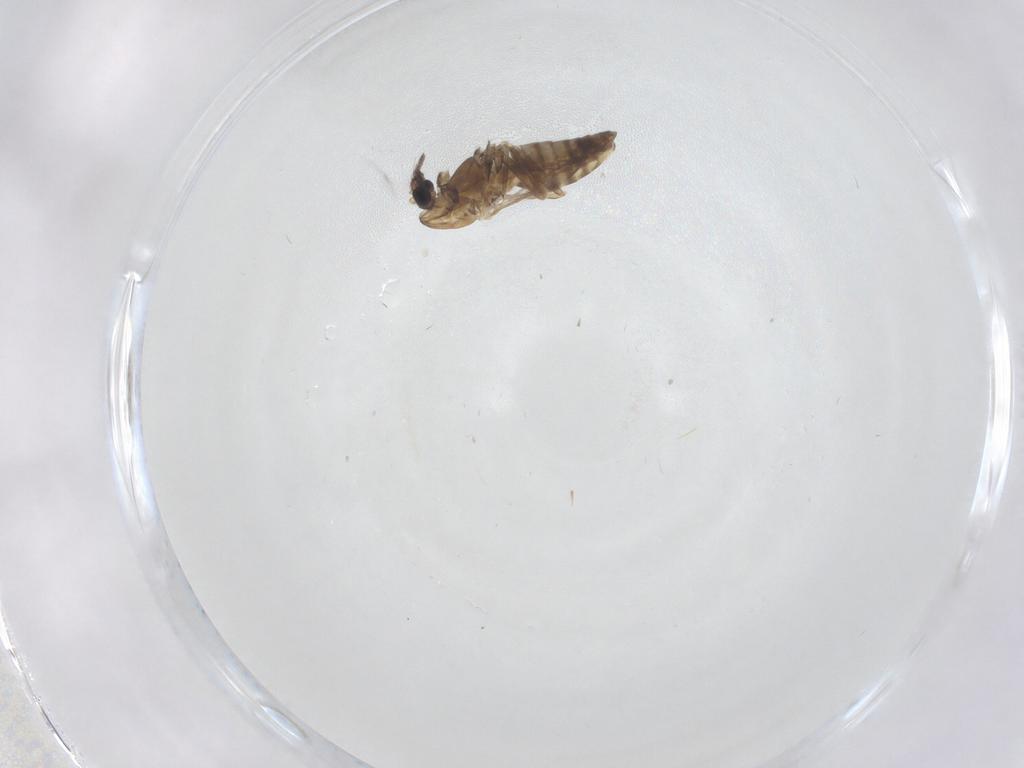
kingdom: Animalia
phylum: Arthropoda
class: Insecta
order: Diptera
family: Chironomidae
